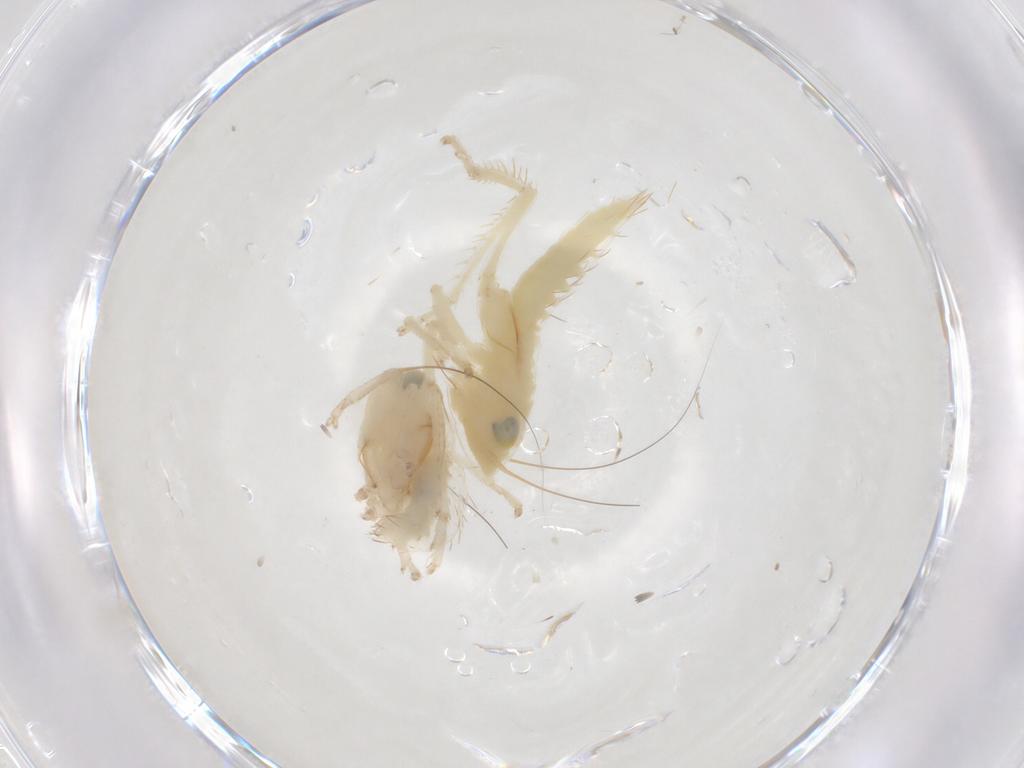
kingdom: Animalia
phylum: Arthropoda
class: Insecta
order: Hemiptera
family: Cicadellidae
